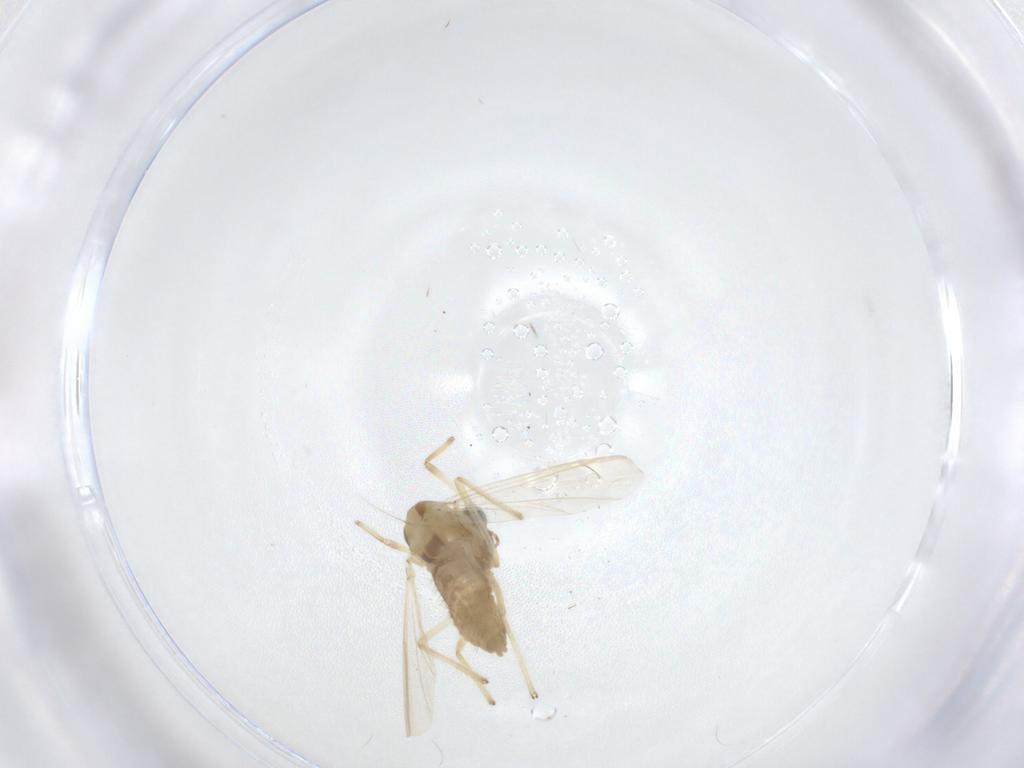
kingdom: Animalia
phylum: Arthropoda
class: Insecta
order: Diptera
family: Chironomidae
